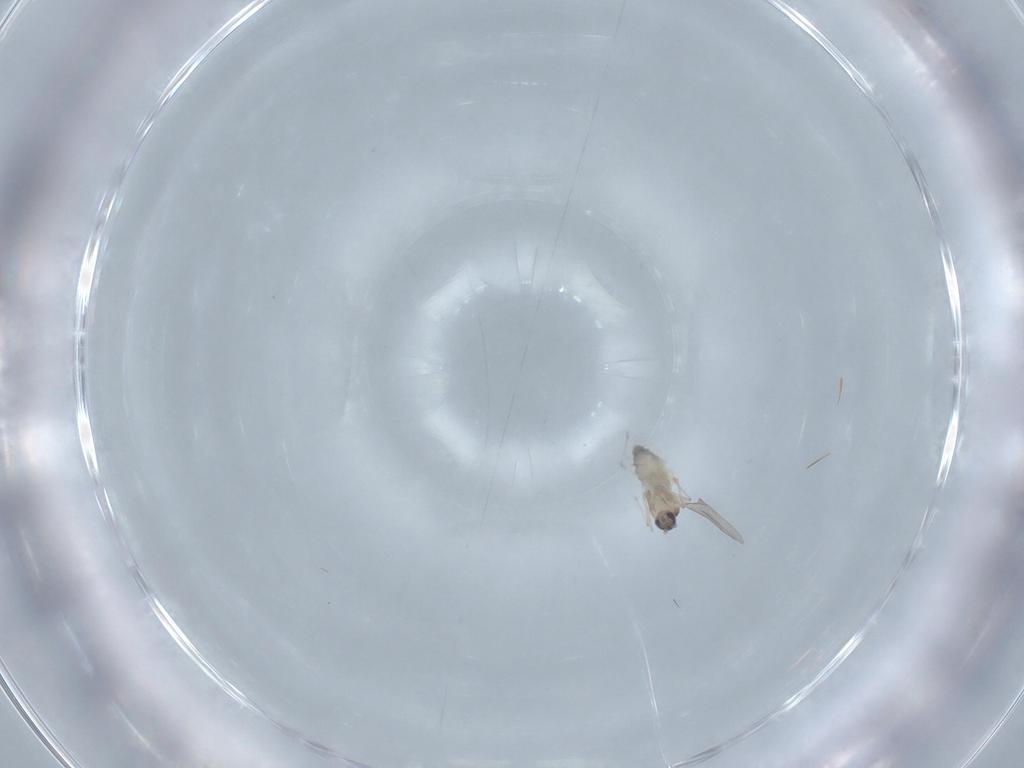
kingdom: Animalia
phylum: Arthropoda
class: Insecta
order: Diptera
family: Cecidomyiidae
